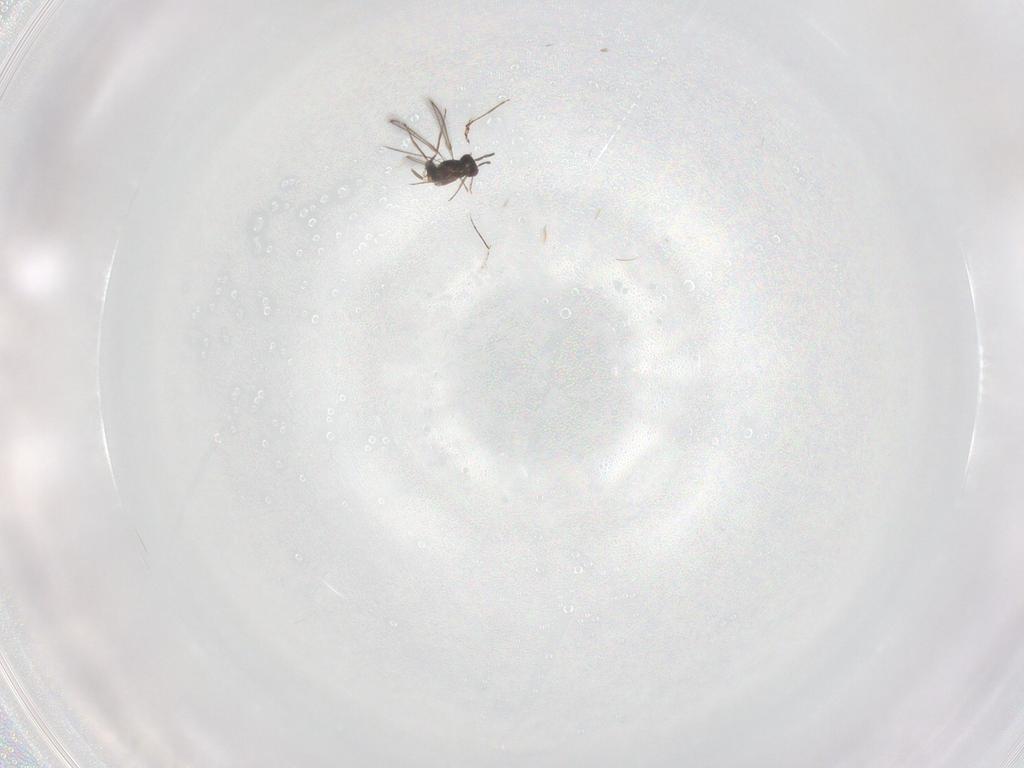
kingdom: Animalia
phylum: Arthropoda
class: Insecta
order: Hymenoptera
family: Mymaridae
